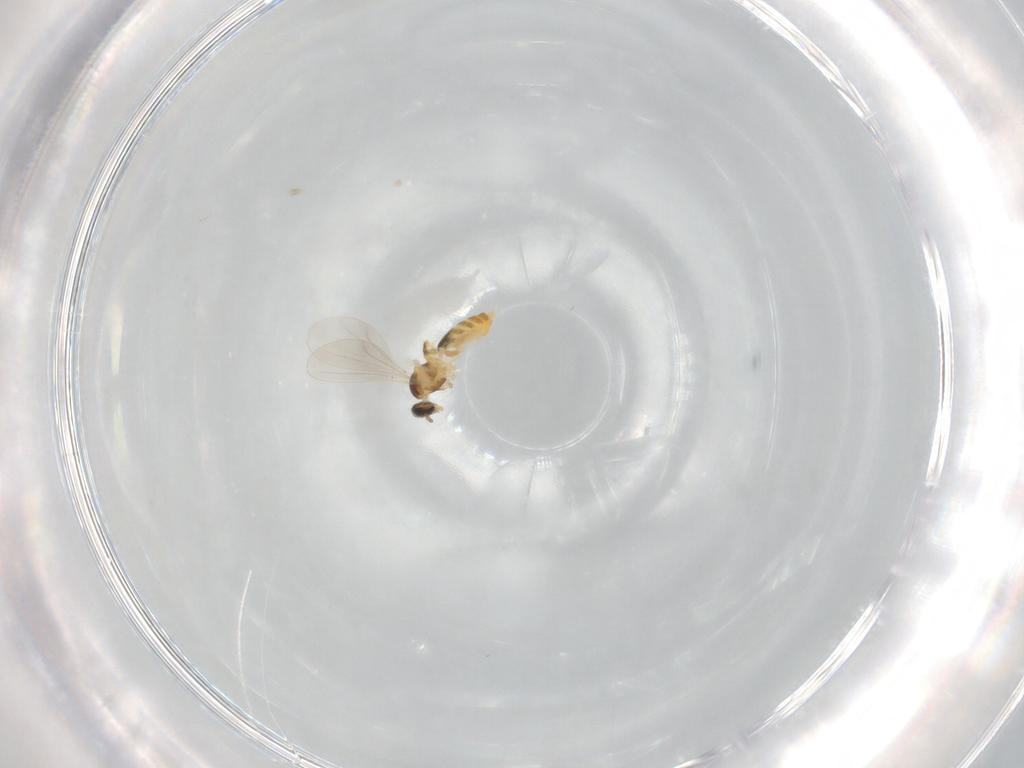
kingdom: Animalia
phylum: Arthropoda
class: Insecta
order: Diptera
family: Cecidomyiidae
